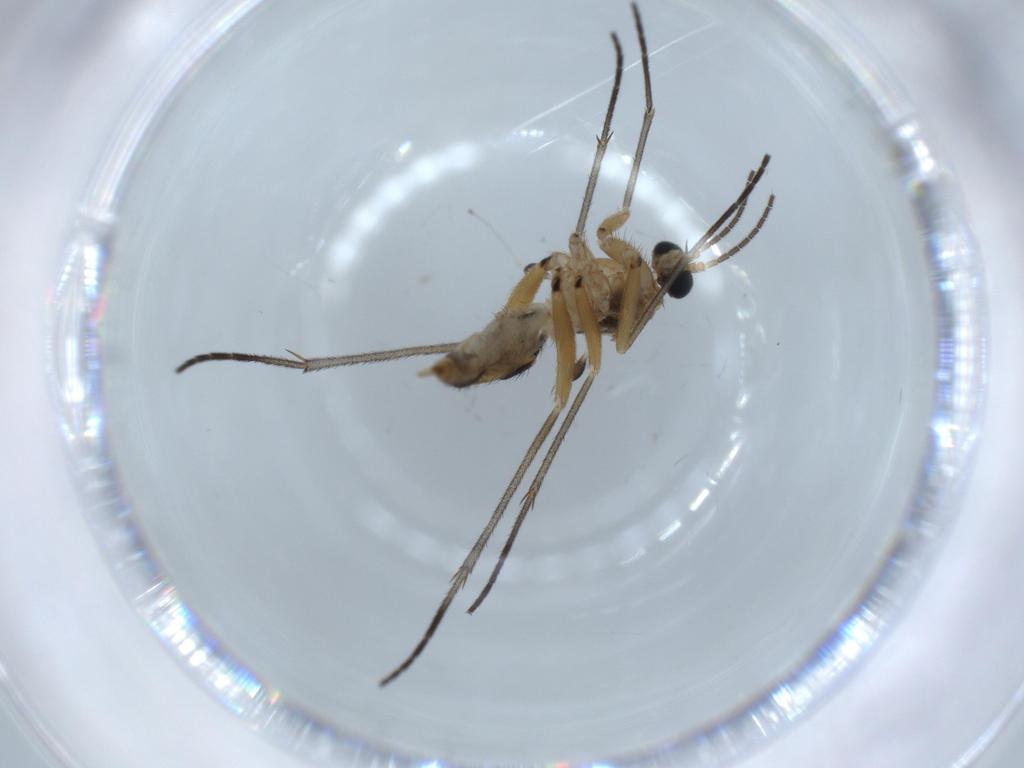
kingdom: Animalia
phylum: Arthropoda
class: Insecta
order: Diptera
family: Sciaridae
